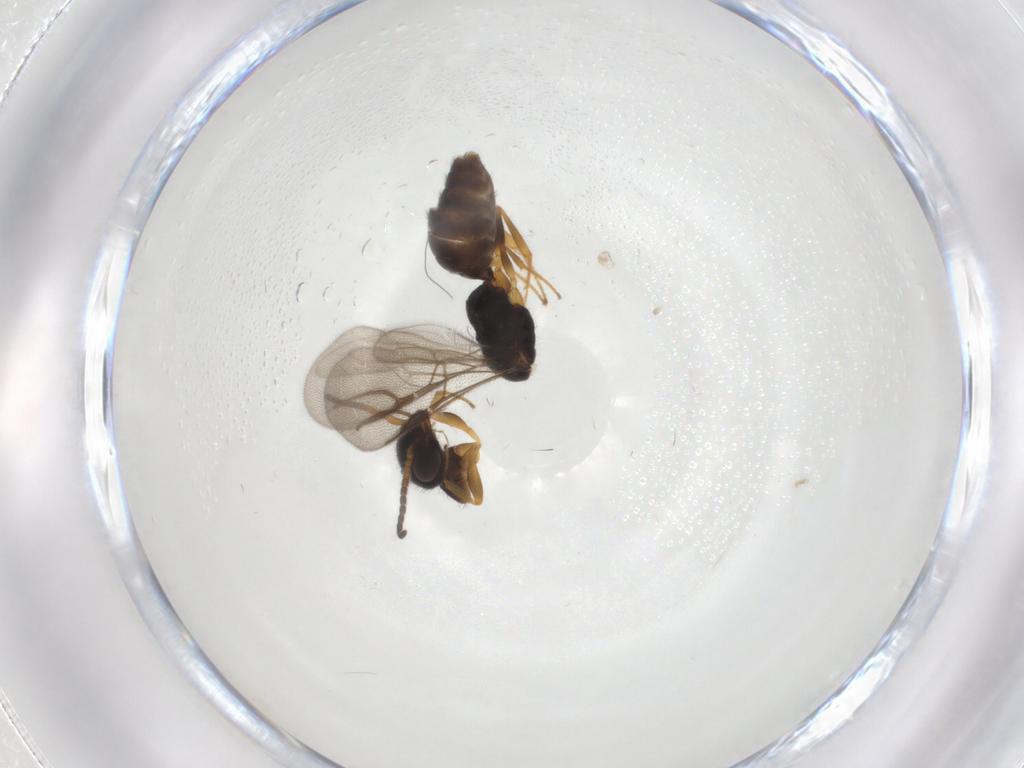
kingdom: Animalia
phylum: Arthropoda
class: Insecta
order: Hymenoptera
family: Bethylidae
